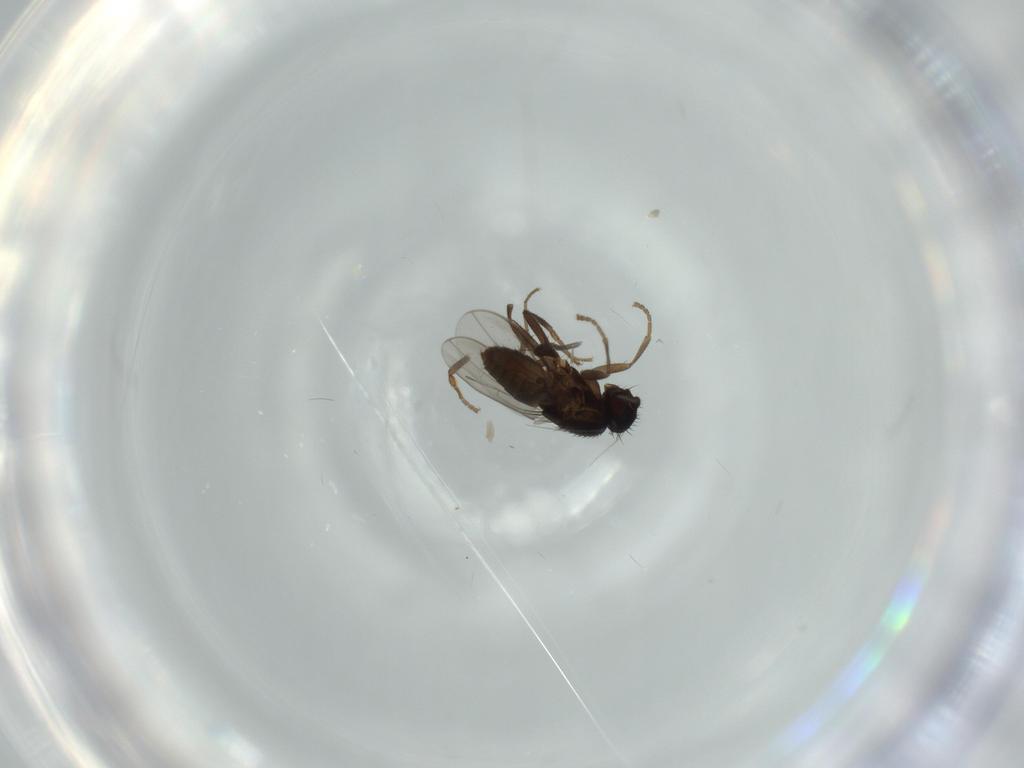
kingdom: Animalia
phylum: Arthropoda
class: Insecta
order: Diptera
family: Sphaeroceridae
